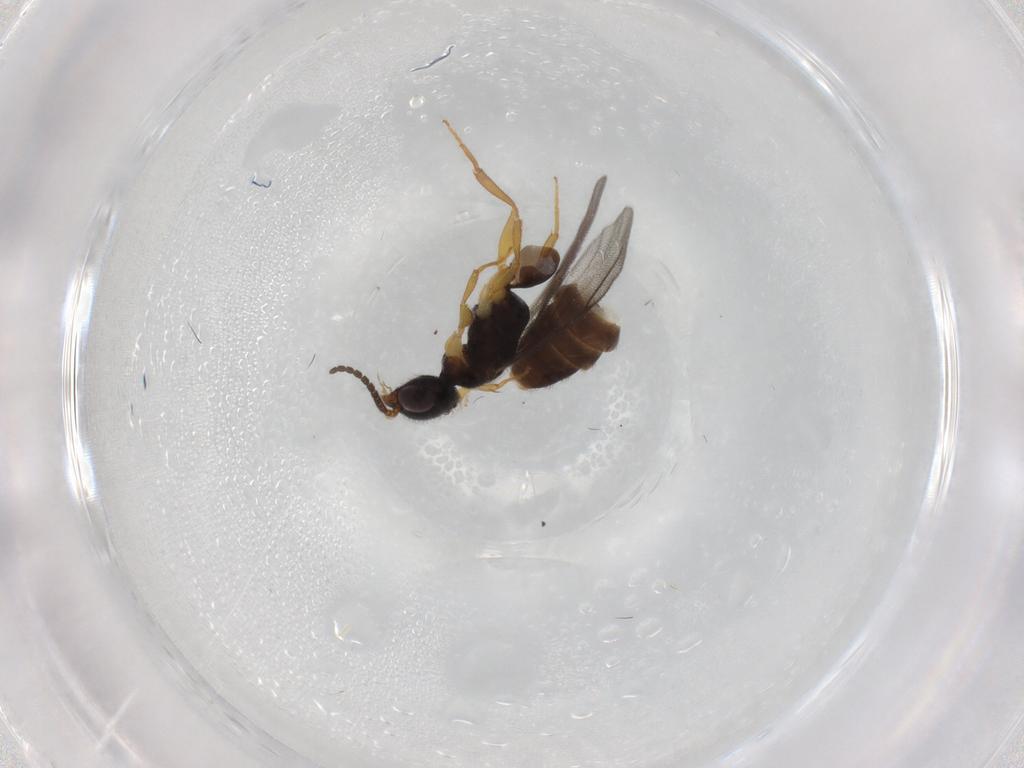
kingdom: Animalia
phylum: Arthropoda
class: Insecta
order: Hymenoptera
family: Bethylidae
